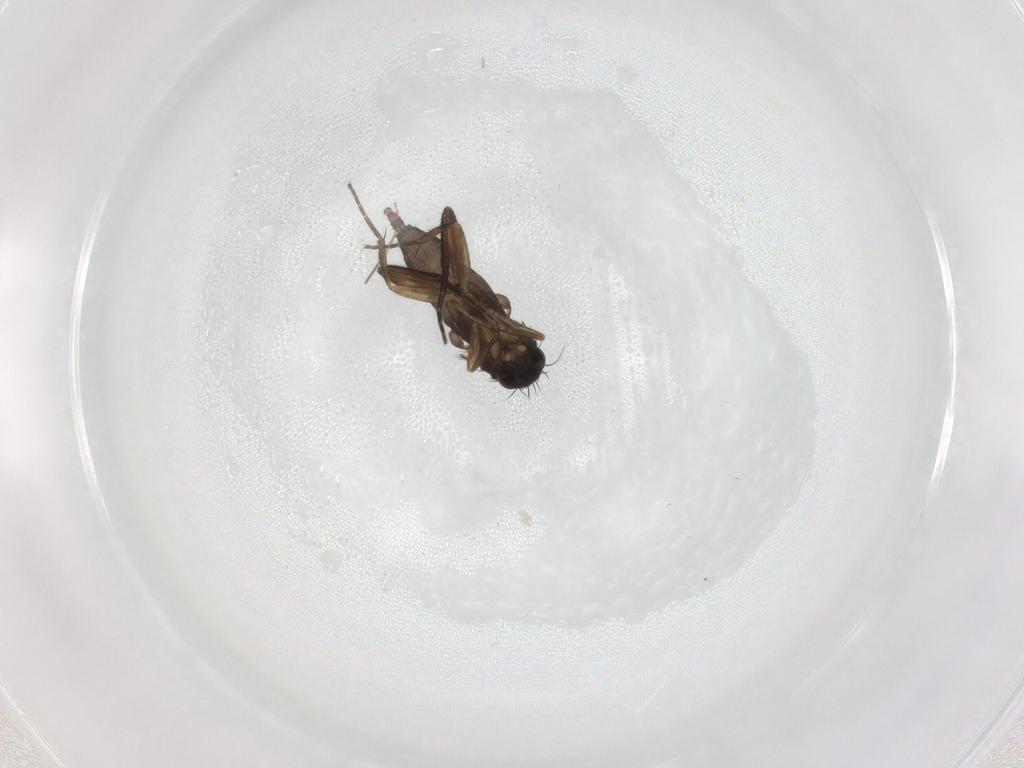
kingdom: Animalia
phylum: Arthropoda
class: Insecta
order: Diptera
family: Phoridae
